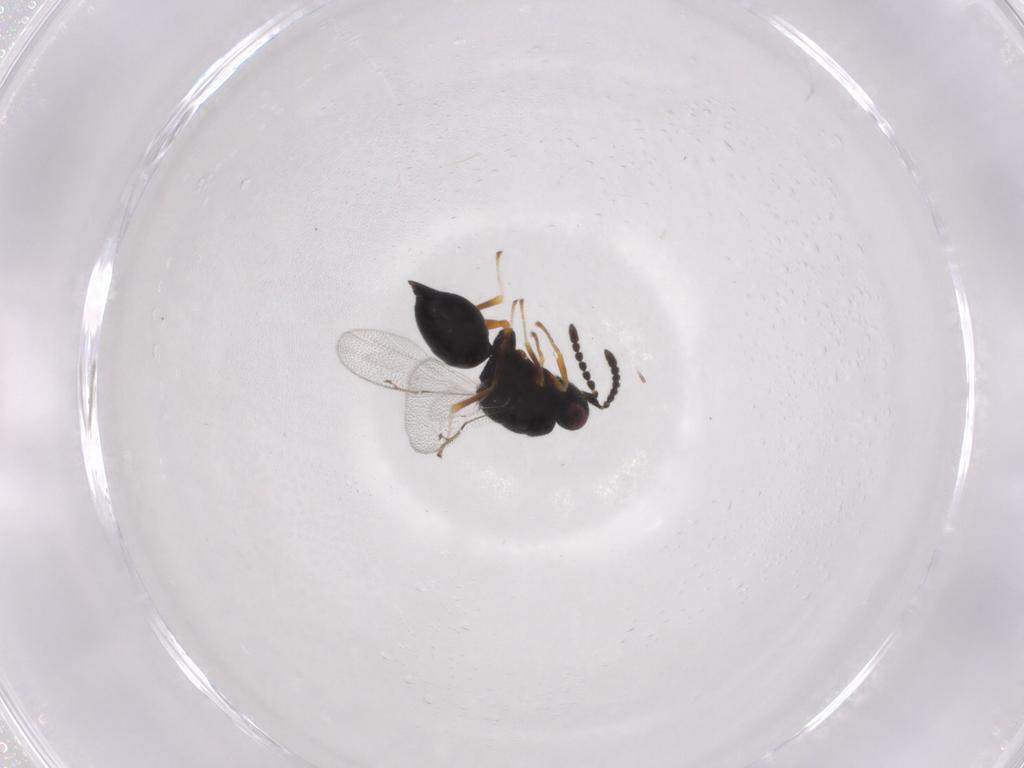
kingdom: Animalia
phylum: Arthropoda
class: Insecta
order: Hymenoptera
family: Eurytomidae
